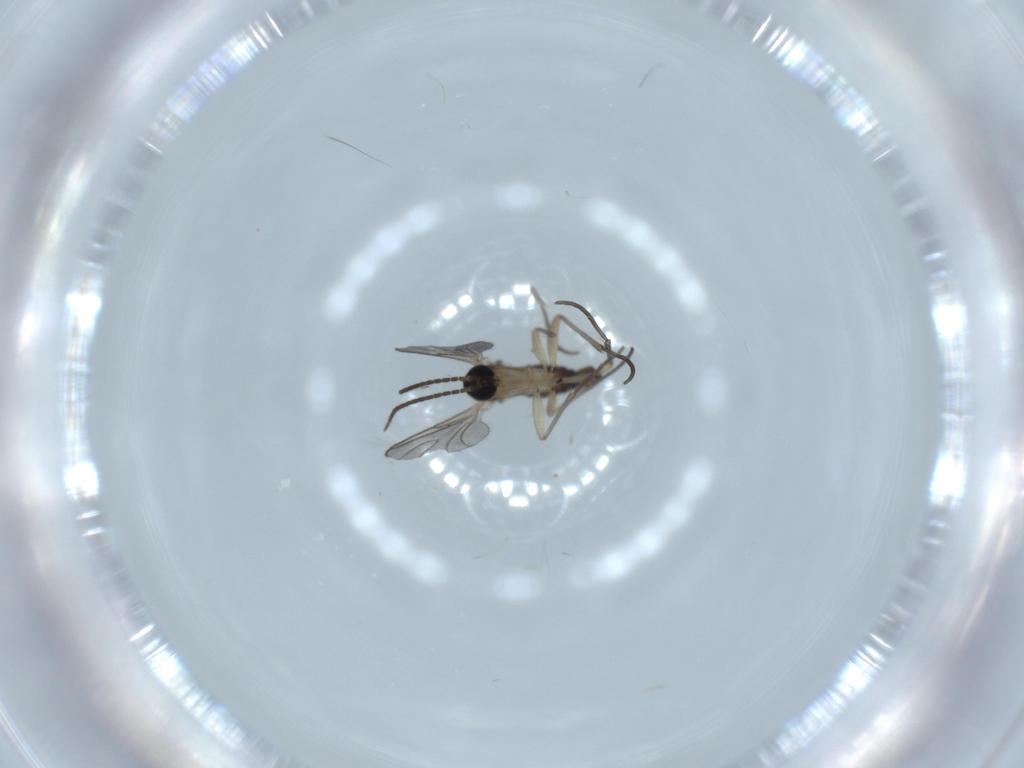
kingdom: Animalia
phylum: Arthropoda
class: Insecta
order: Diptera
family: Sciaridae
